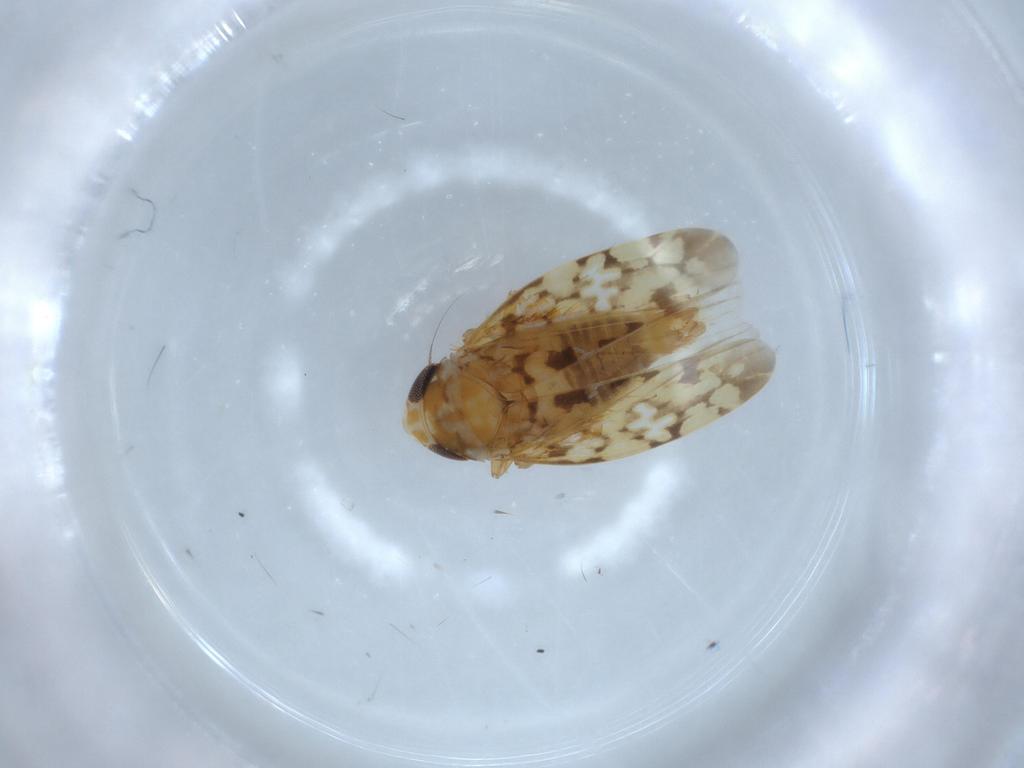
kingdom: Animalia
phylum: Arthropoda
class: Insecta
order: Hemiptera
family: Cicadellidae
